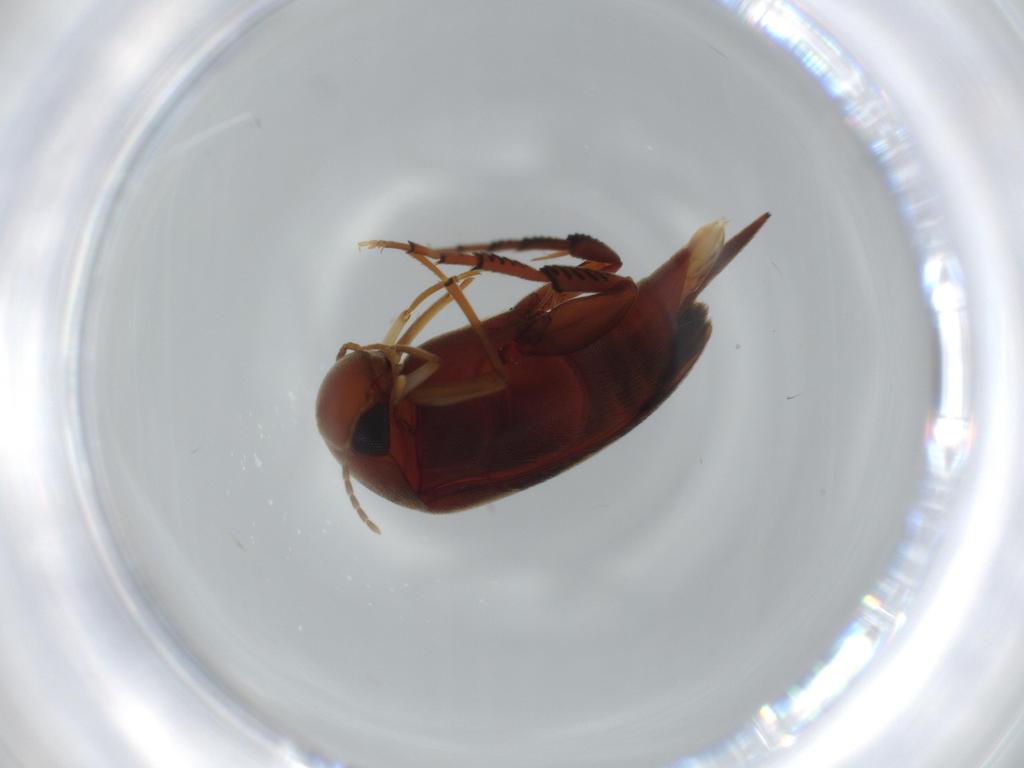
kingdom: Animalia
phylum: Arthropoda
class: Insecta
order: Coleoptera
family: Mordellidae
